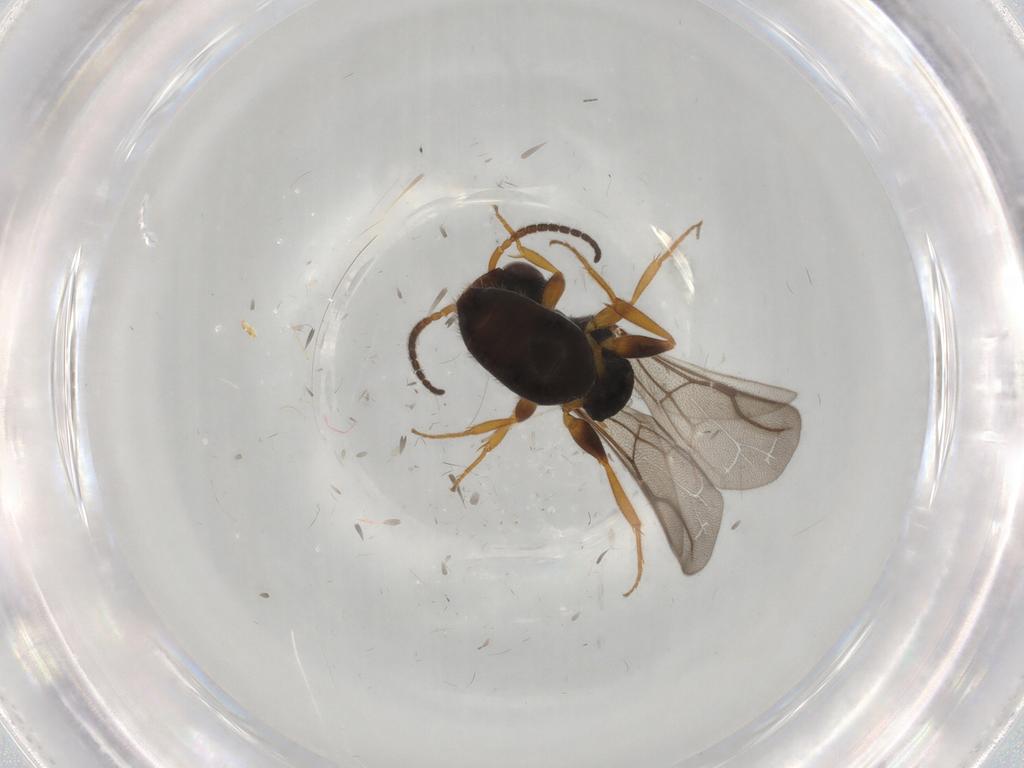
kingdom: Animalia
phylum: Arthropoda
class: Insecta
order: Hymenoptera
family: Bethylidae
